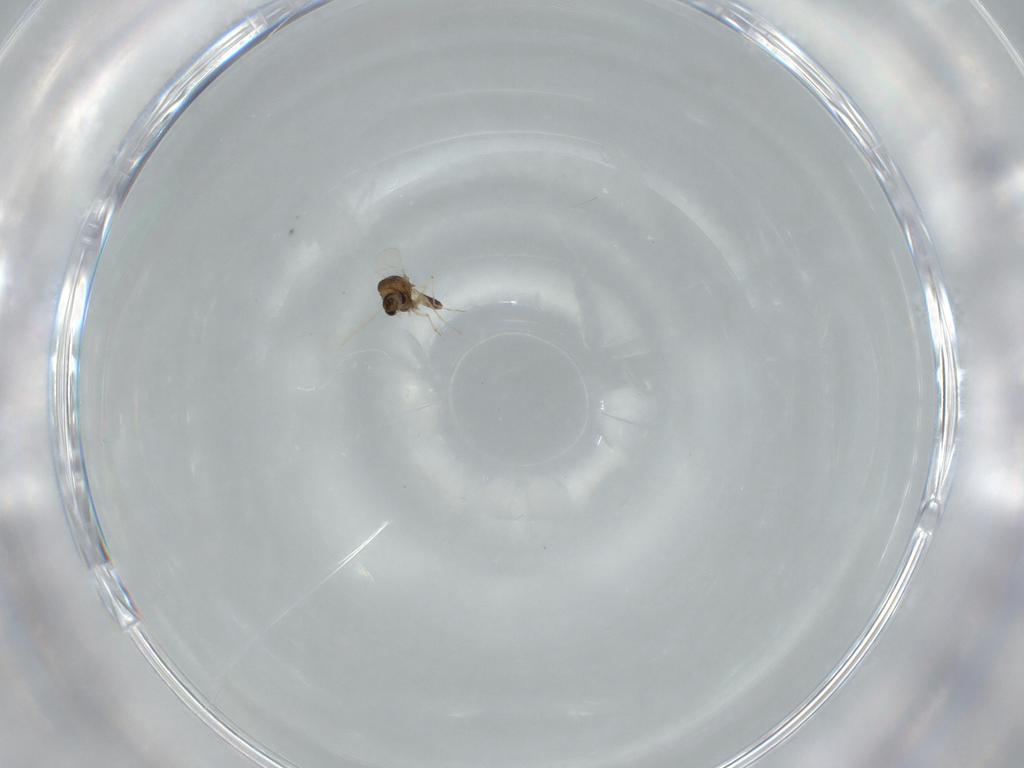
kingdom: Animalia
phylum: Arthropoda
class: Insecta
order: Diptera
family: Chironomidae
